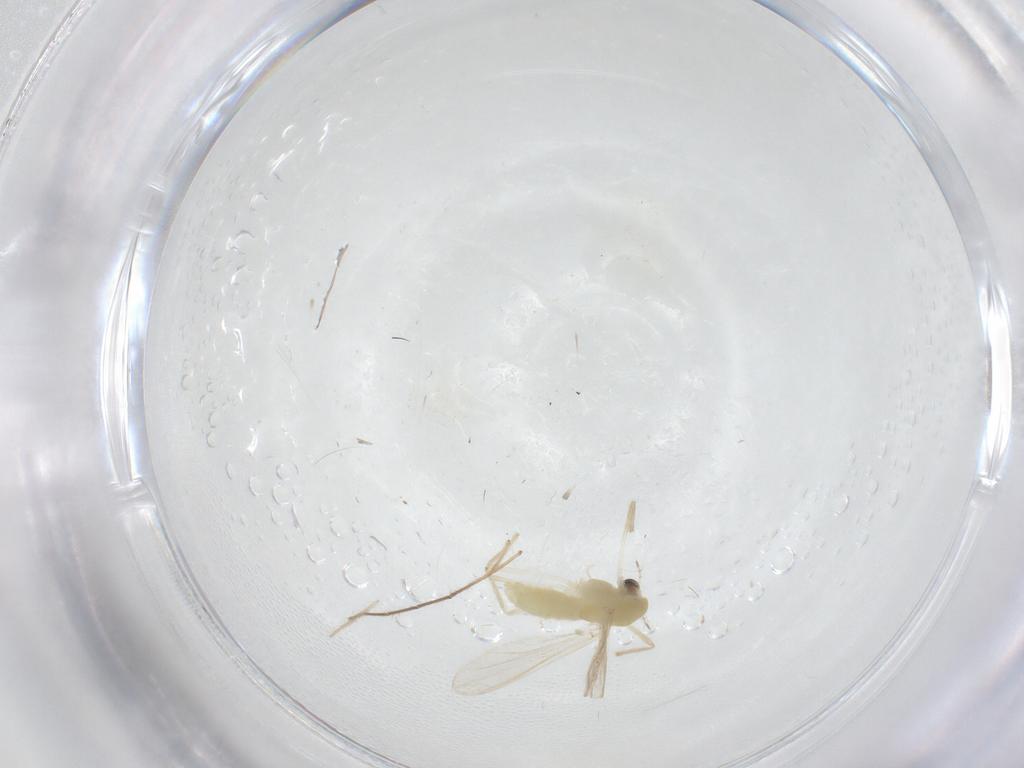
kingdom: Animalia
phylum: Arthropoda
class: Insecta
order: Diptera
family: Chironomidae
